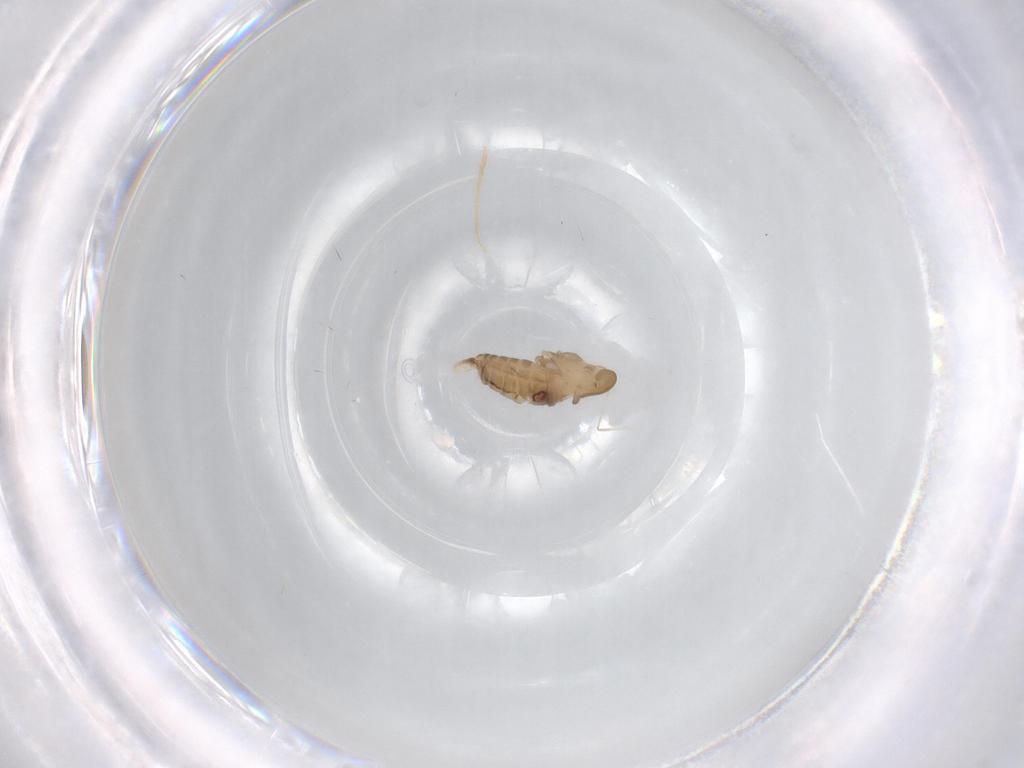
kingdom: Animalia
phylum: Arthropoda
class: Insecta
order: Diptera
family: Psychodidae
